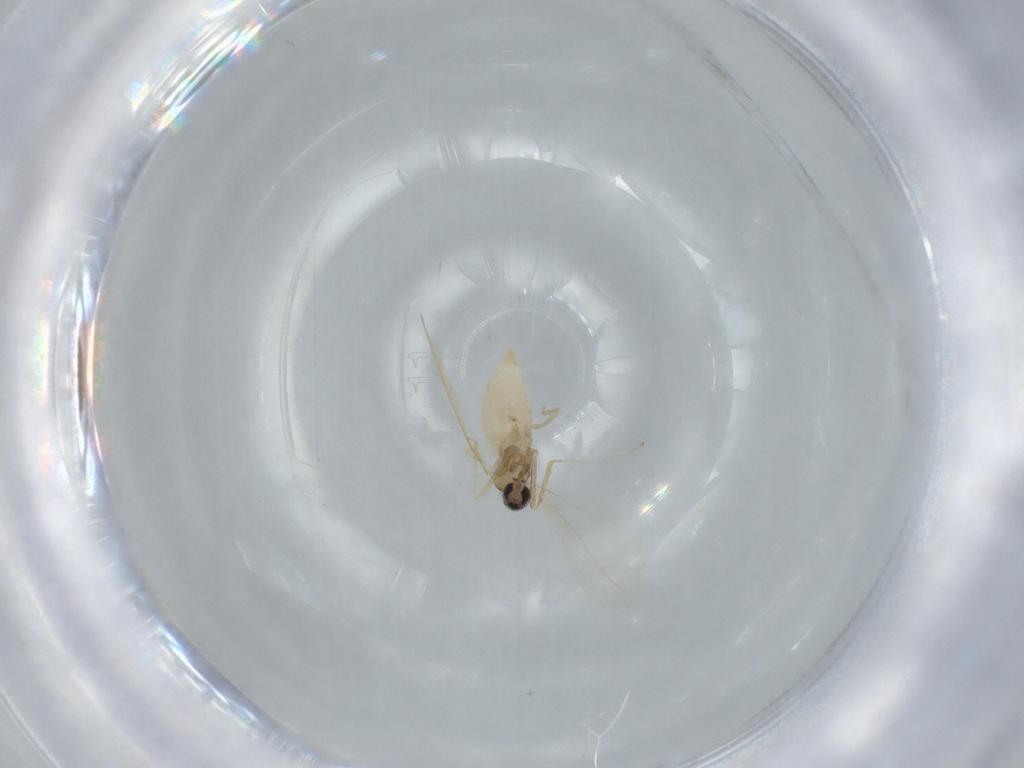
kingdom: Animalia
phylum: Arthropoda
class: Insecta
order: Diptera
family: Cecidomyiidae
